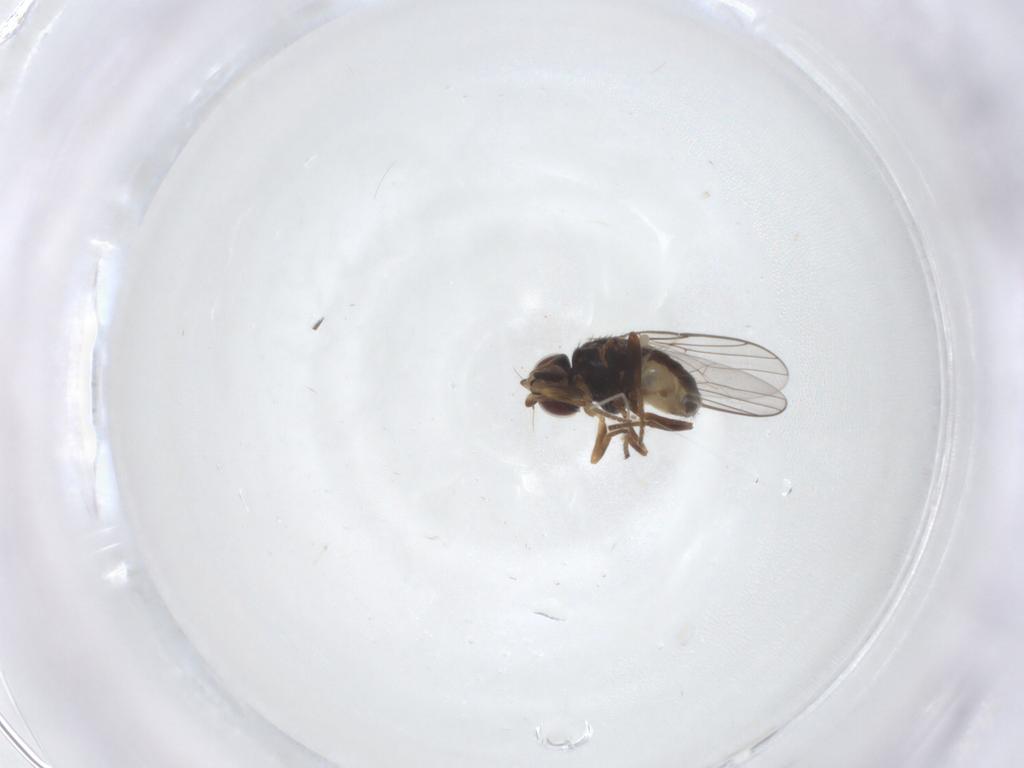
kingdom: Animalia
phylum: Arthropoda
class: Insecta
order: Diptera
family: Chloropidae
